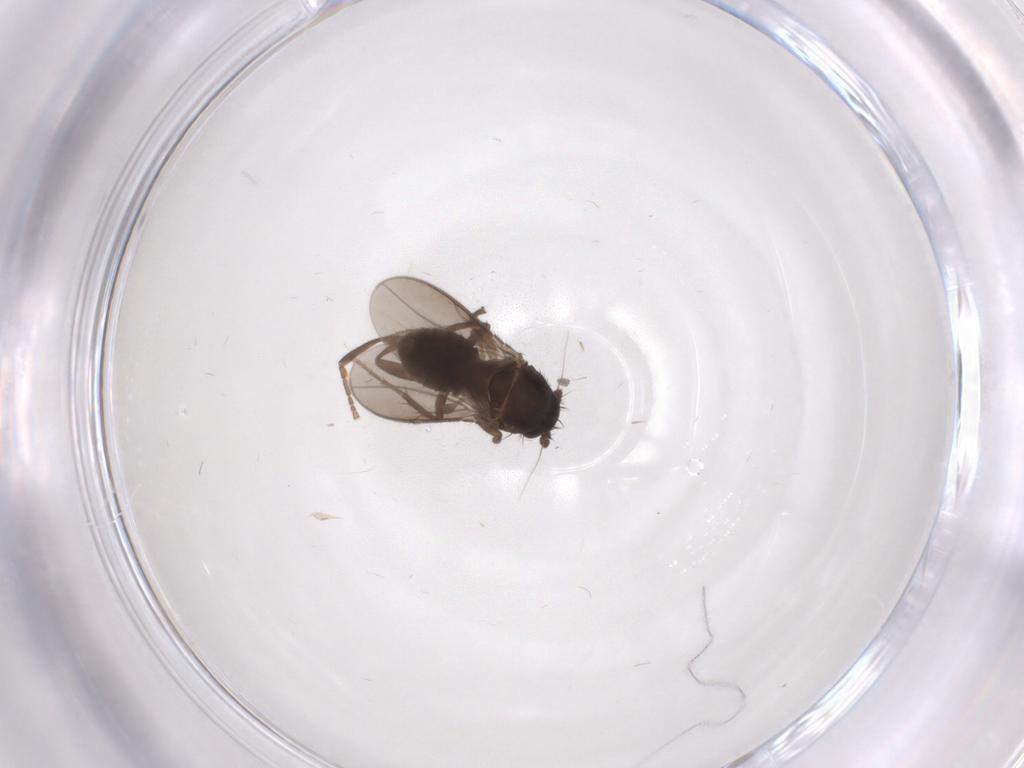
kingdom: Animalia
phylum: Arthropoda
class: Insecta
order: Diptera
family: Sphaeroceridae
